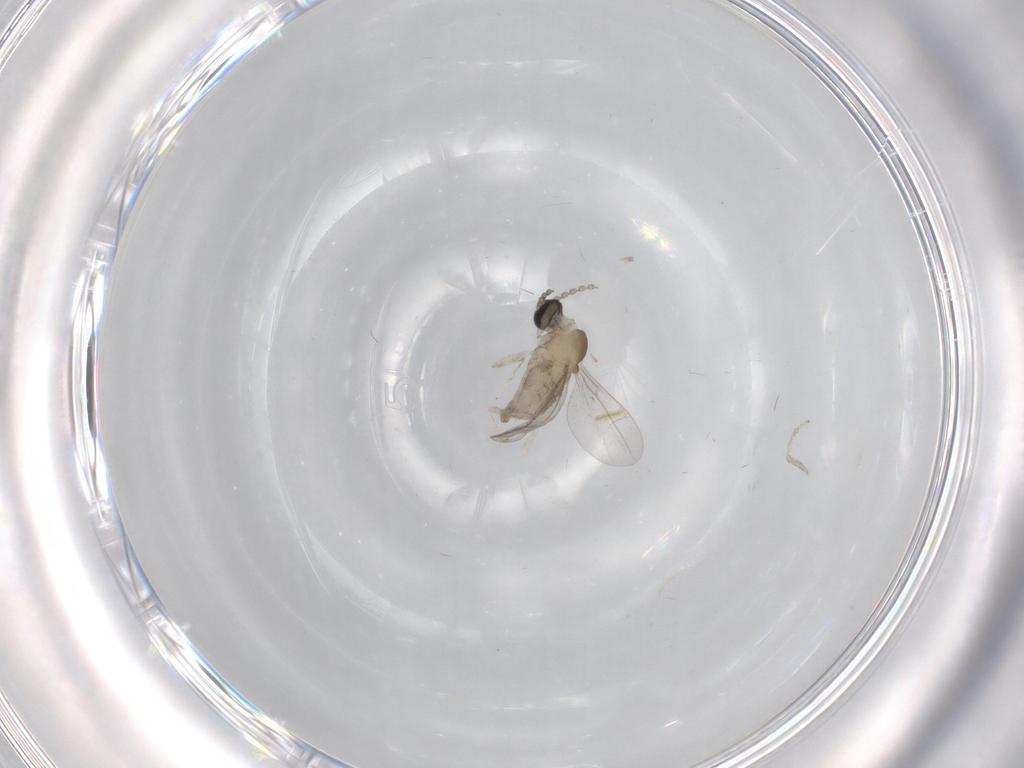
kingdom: Animalia
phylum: Arthropoda
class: Insecta
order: Diptera
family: Cecidomyiidae
